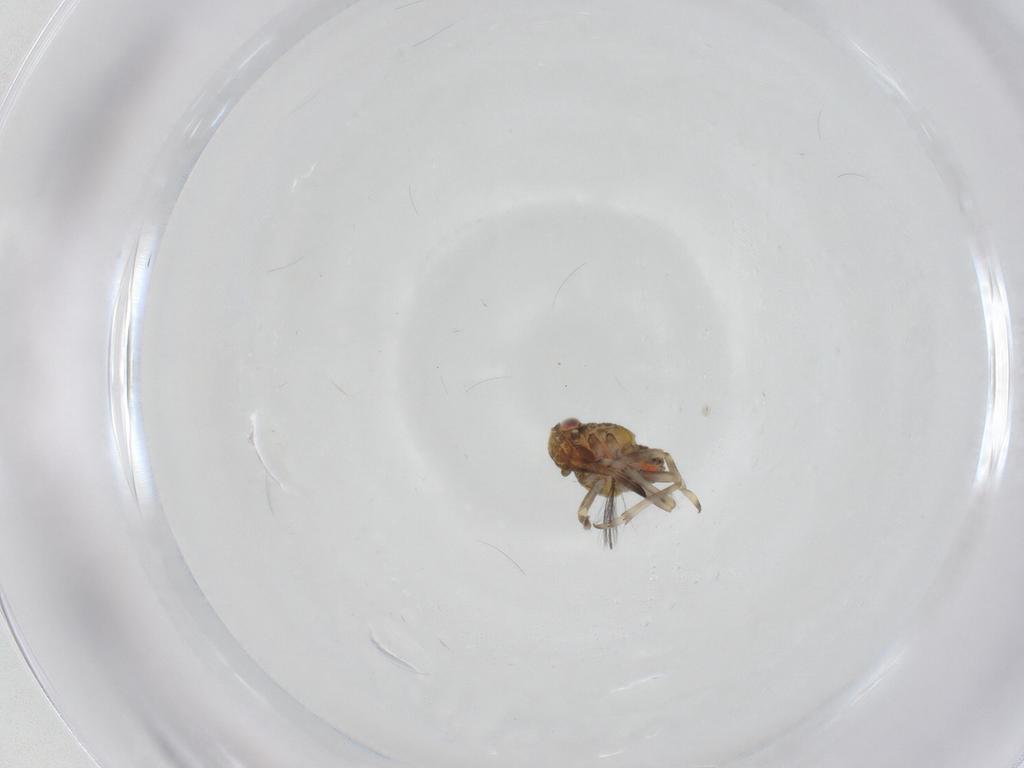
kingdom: Animalia
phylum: Arthropoda
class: Insecta
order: Hemiptera
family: Tropiduchidae
